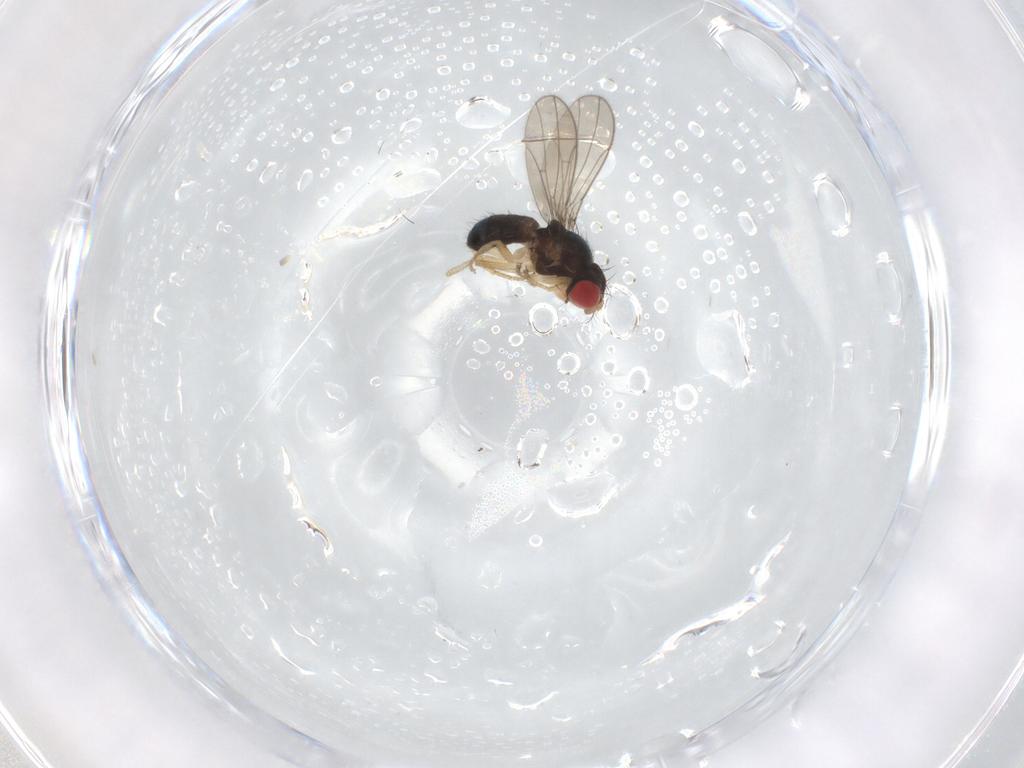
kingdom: Animalia
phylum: Arthropoda
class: Insecta
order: Diptera
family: Drosophilidae
